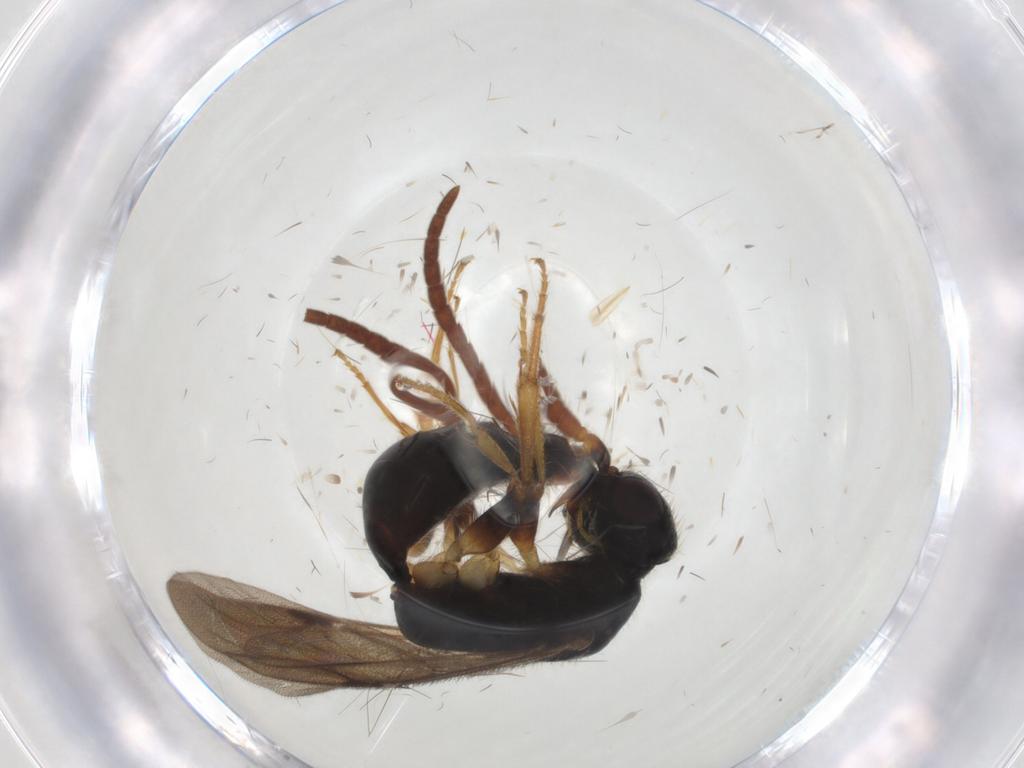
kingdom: Animalia
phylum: Arthropoda
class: Insecta
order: Hymenoptera
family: Bethylidae
